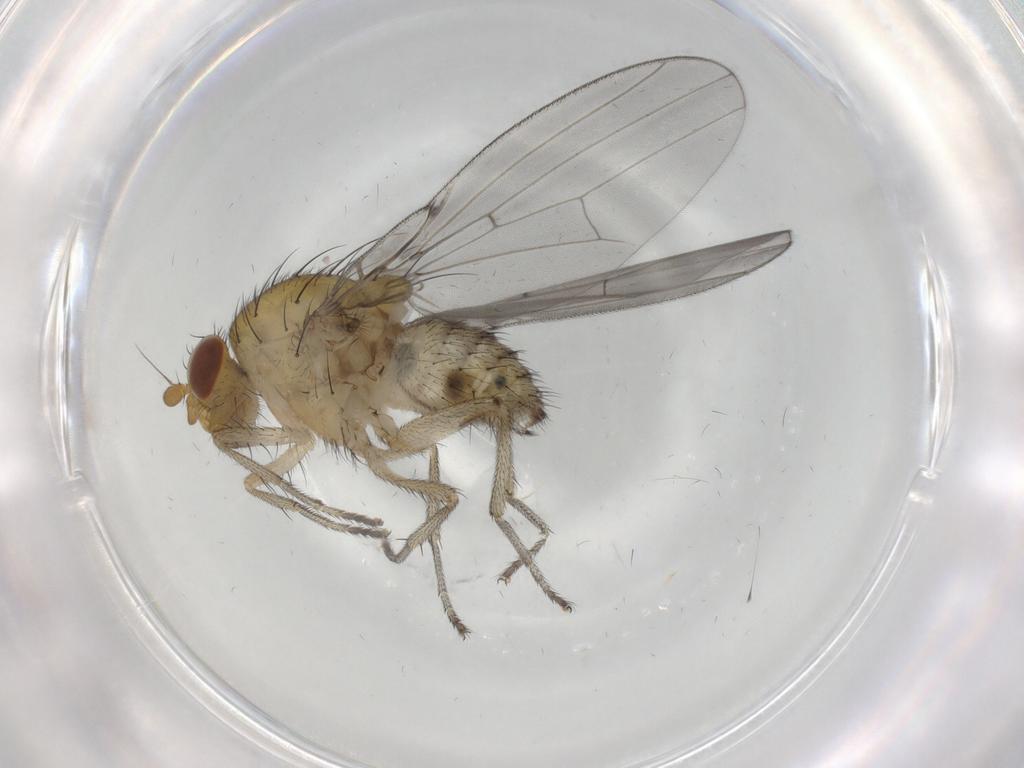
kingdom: Animalia
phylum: Arthropoda
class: Insecta
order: Diptera
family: Lauxaniidae
